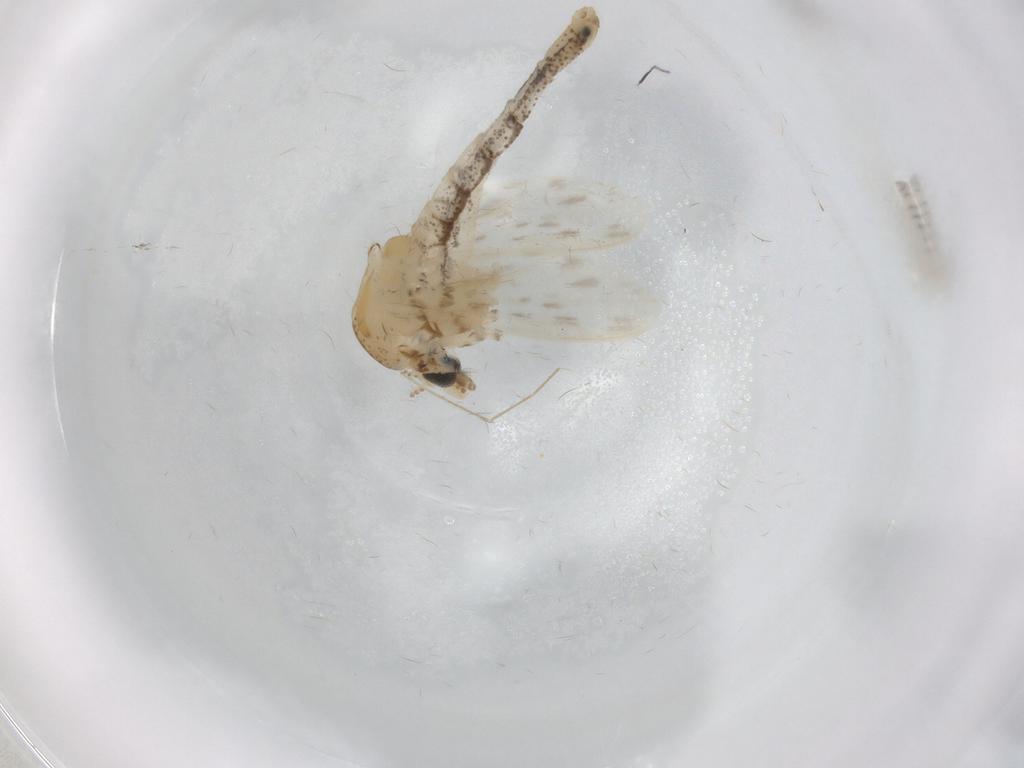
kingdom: Animalia
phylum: Arthropoda
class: Insecta
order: Diptera
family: Chaoboridae
